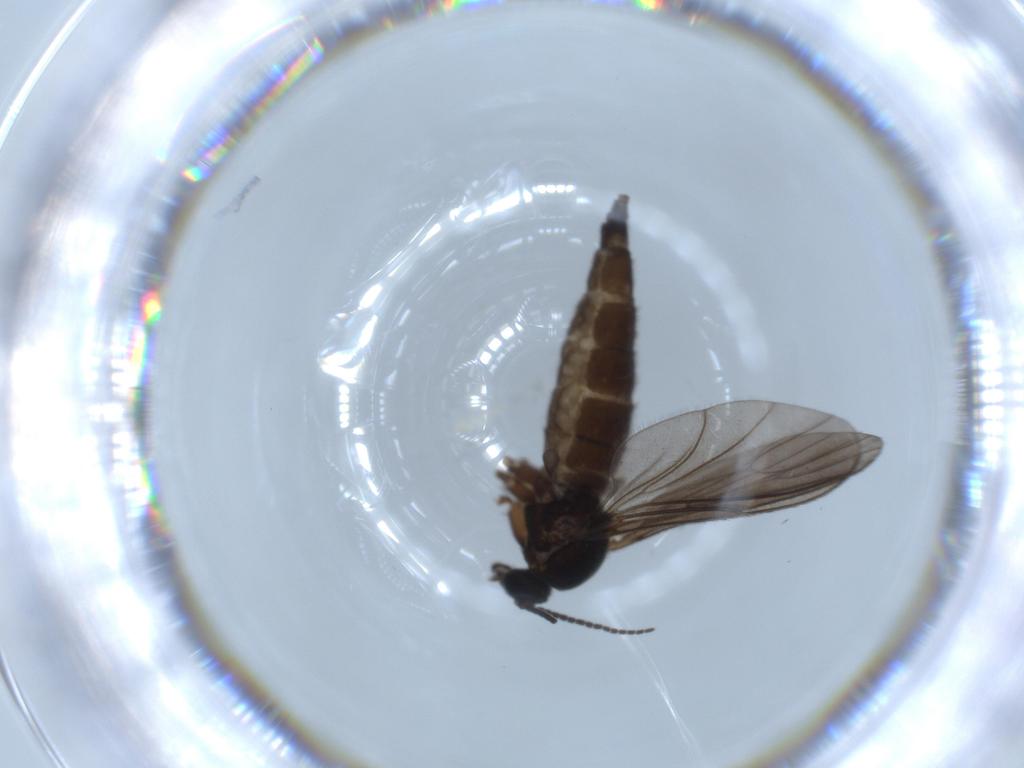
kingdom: Animalia
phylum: Arthropoda
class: Insecta
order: Diptera
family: Sciaridae
